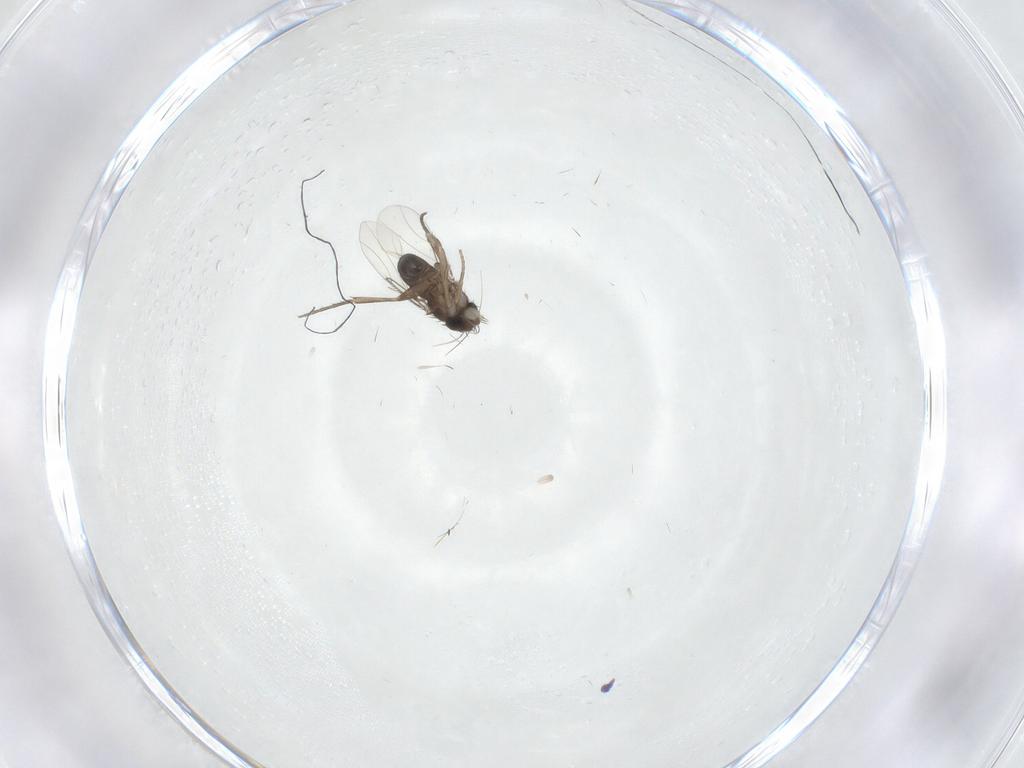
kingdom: Animalia
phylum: Arthropoda
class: Insecta
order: Diptera
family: Phoridae
